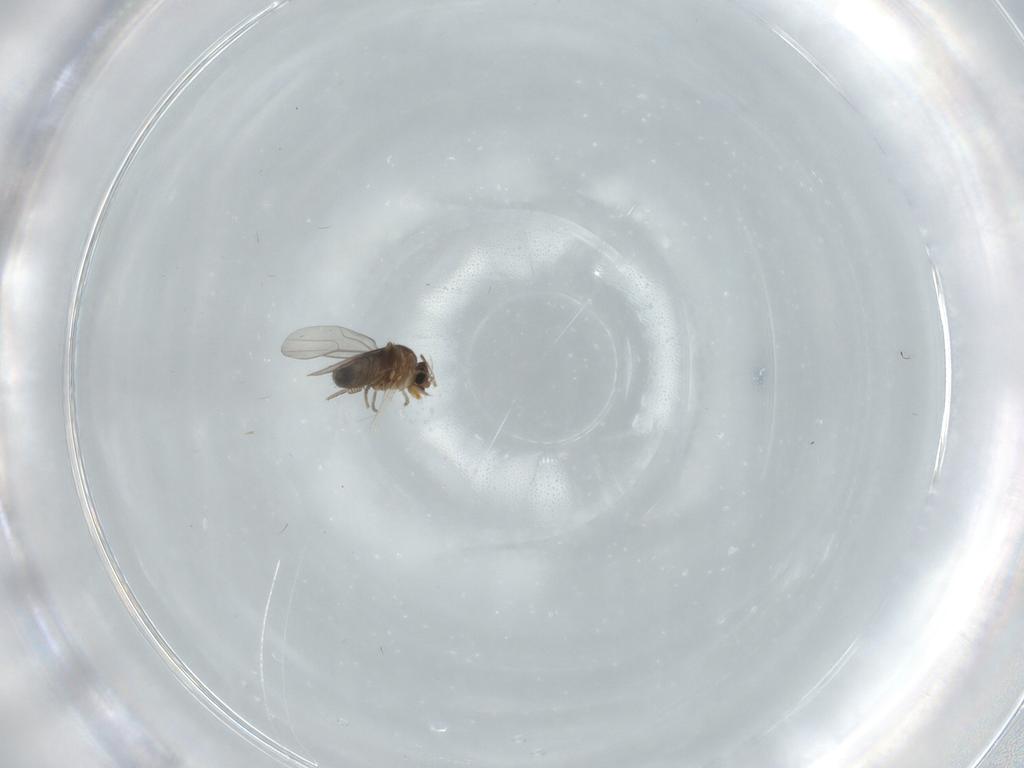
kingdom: Animalia
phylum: Arthropoda
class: Insecta
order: Diptera
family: Phoridae
